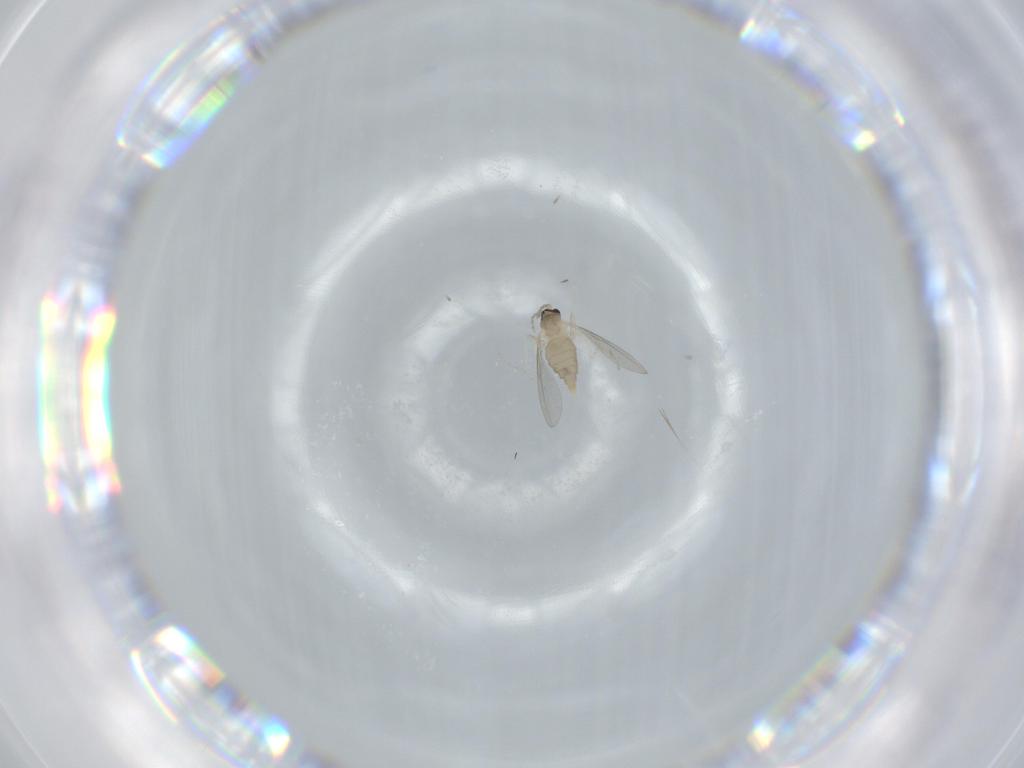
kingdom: Animalia
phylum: Arthropoda
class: Insecta
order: Diptera
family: Cecidomyiidae
